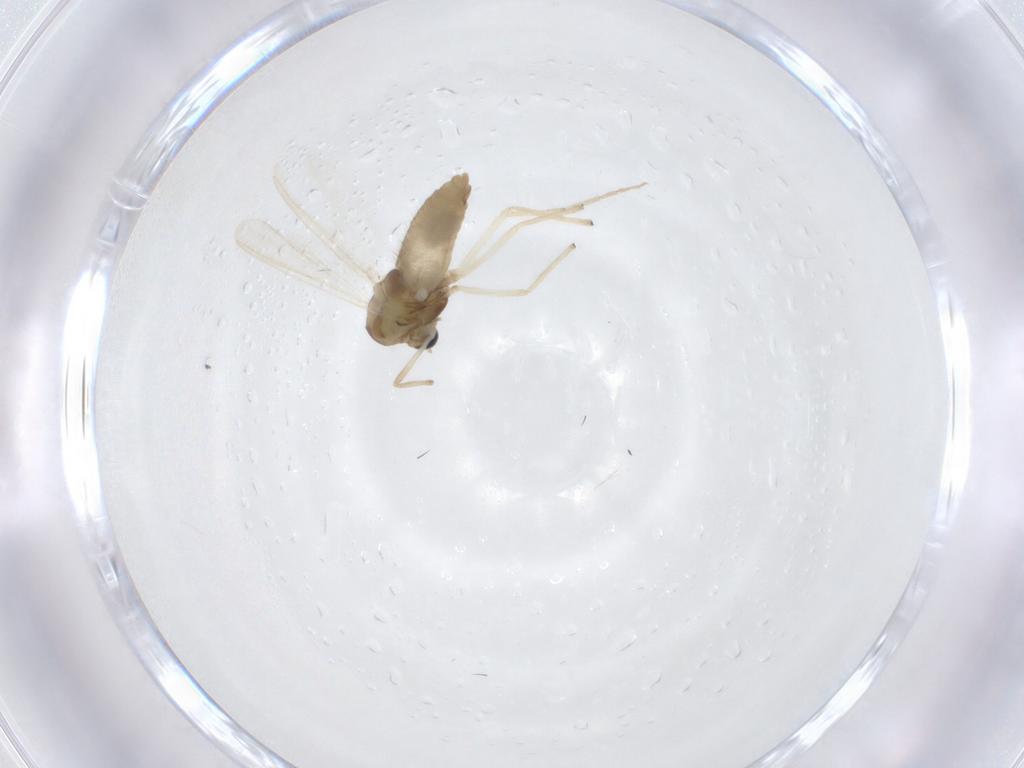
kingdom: Animalia
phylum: Arthropoda
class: Insecta
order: Diptera
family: Chironomidae
